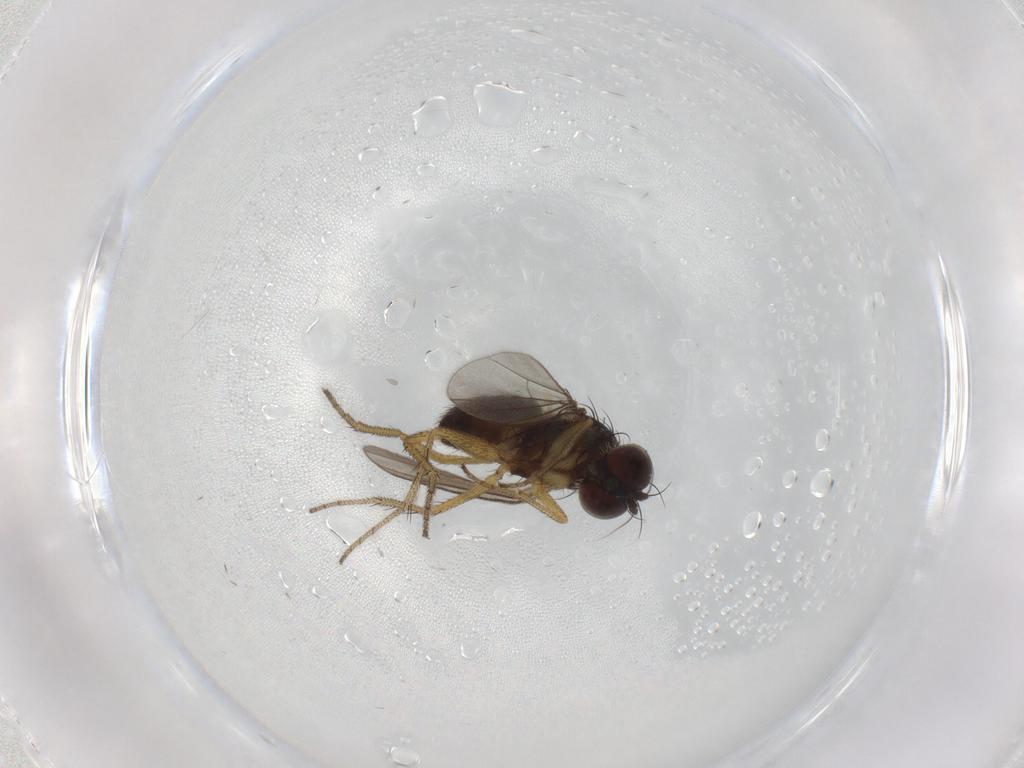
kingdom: Animalia
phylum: Arthropoda
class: Insecta
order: Diptera
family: Dolichopodidae
